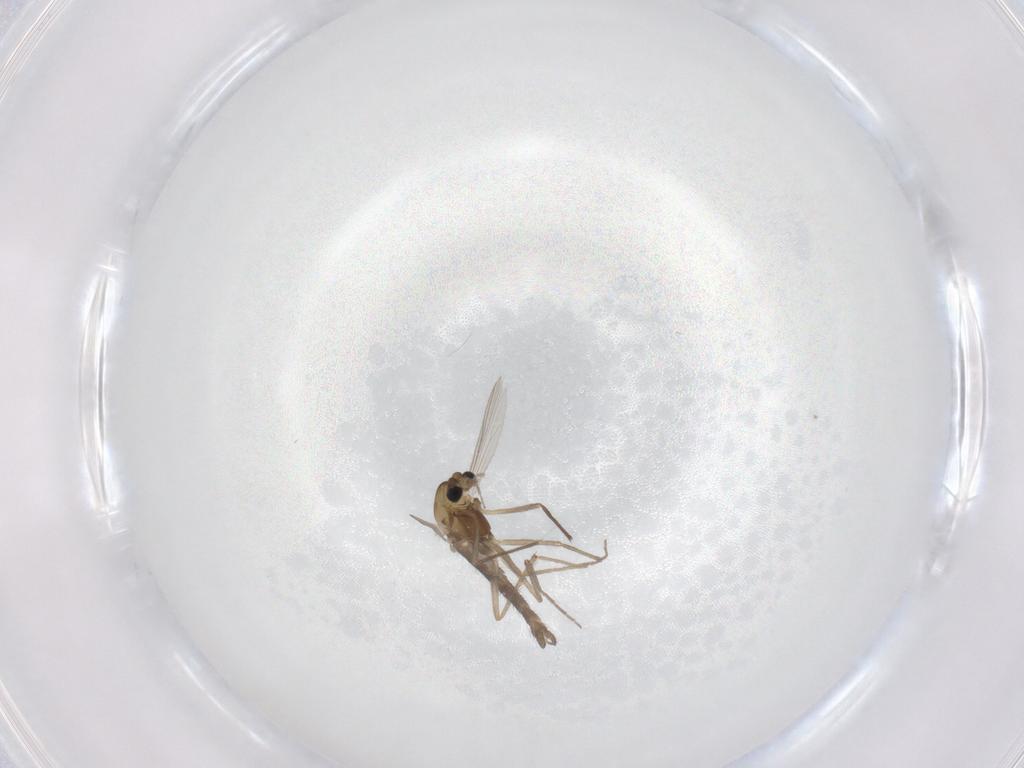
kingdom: Animalia
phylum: Arthropoda
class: Insecta
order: Diptera
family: Chironomidae
